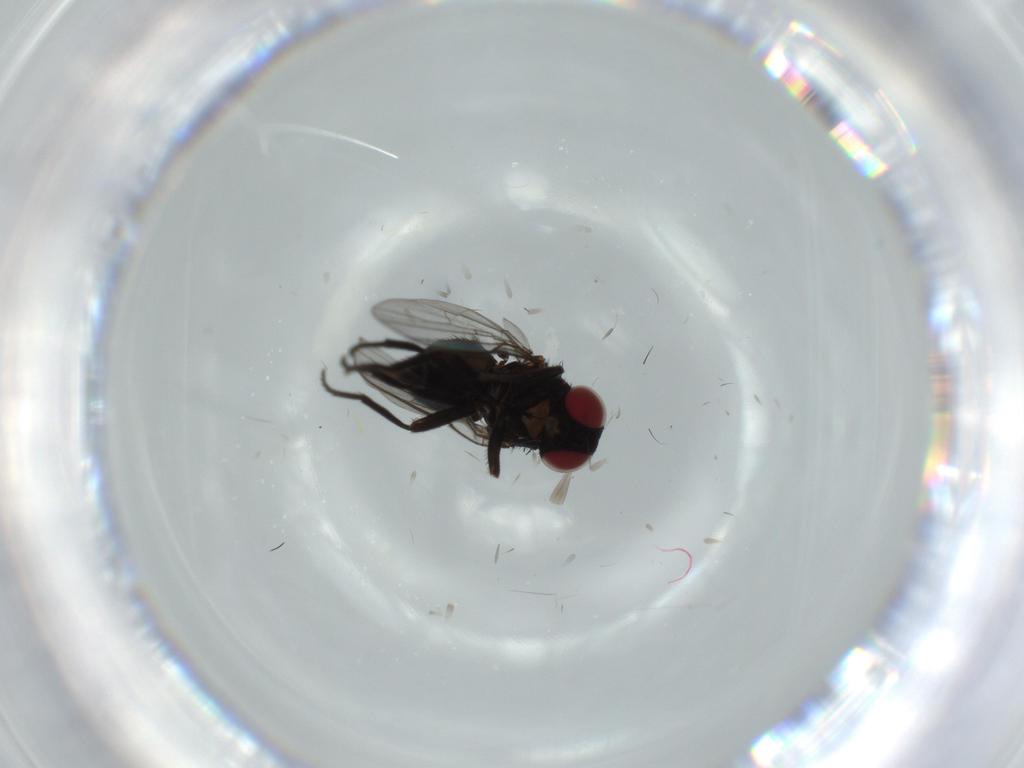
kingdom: Animalia
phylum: Arthropoda
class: Insecta
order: Diptera
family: Agromyzidae
